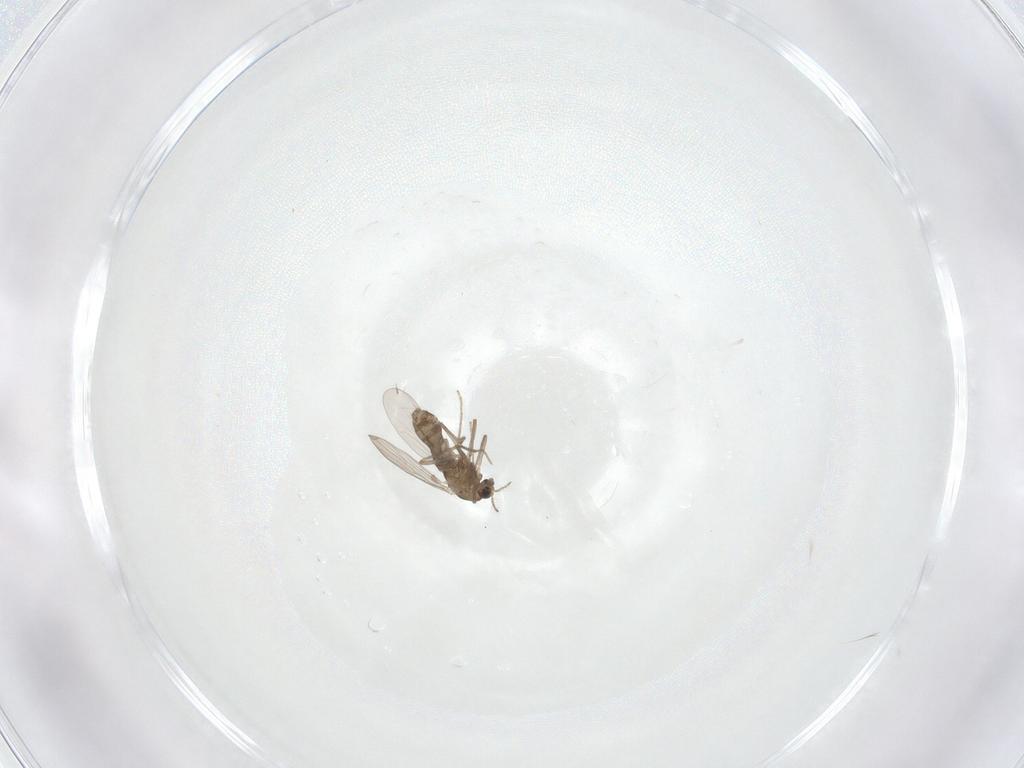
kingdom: Animalia
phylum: Arthropoda
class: Insecta
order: Diptera
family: Chironomidae
